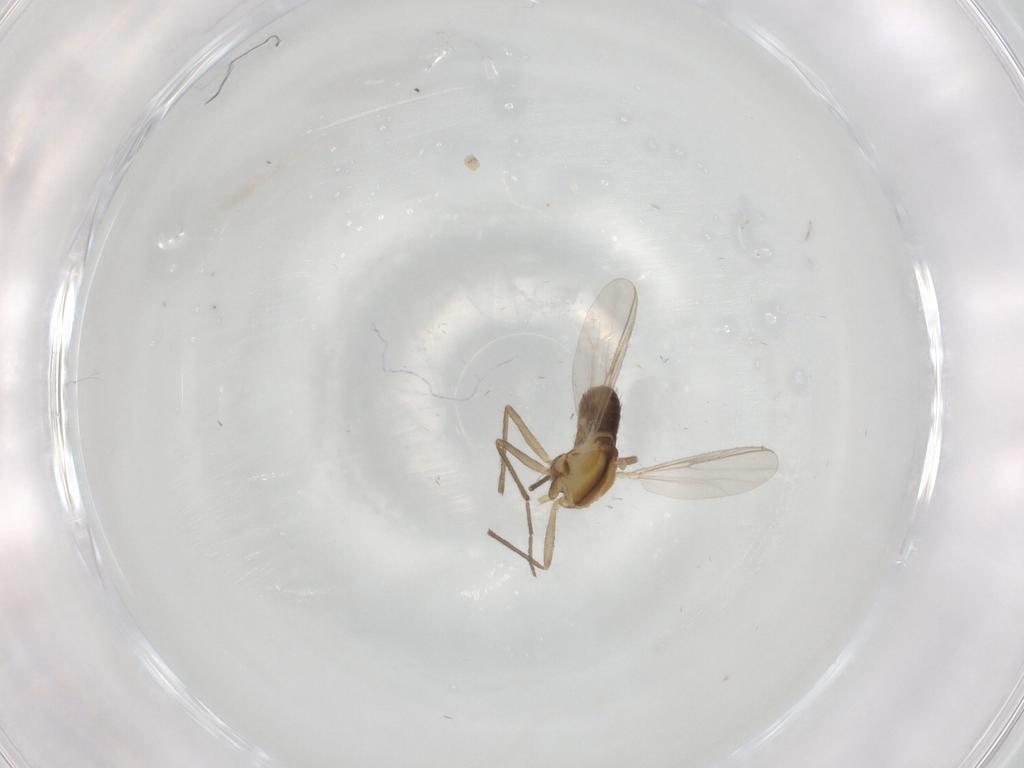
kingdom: Animalia
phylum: Arthropoda
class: Insecta
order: Diptera
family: Chironomidae
